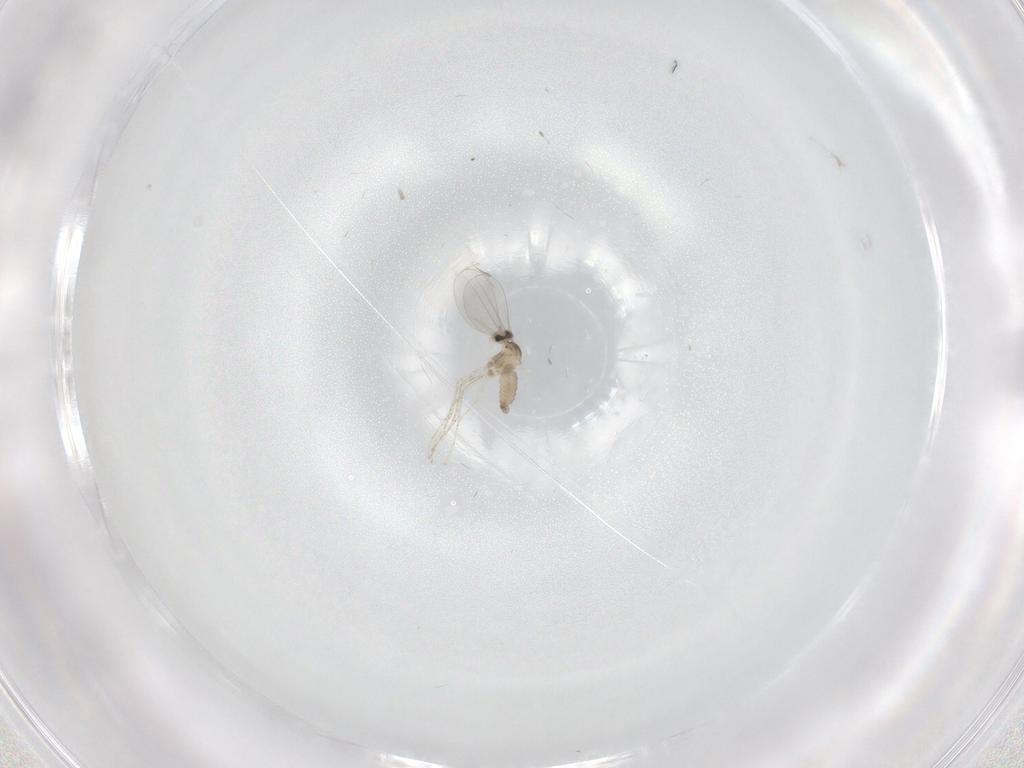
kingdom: Animalia
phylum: Arthropoda
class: Insecta
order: Diptera
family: Cecidomyiidae
